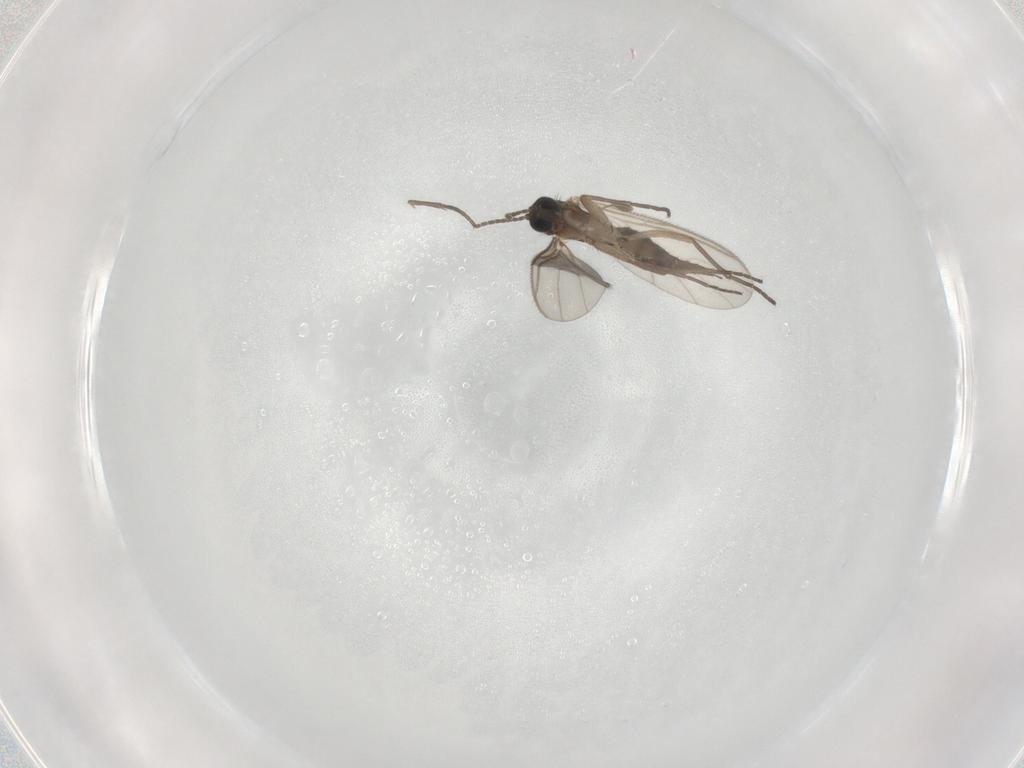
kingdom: Animalia
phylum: Arthropoda
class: Insecta
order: Diptera
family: Sciaridae
